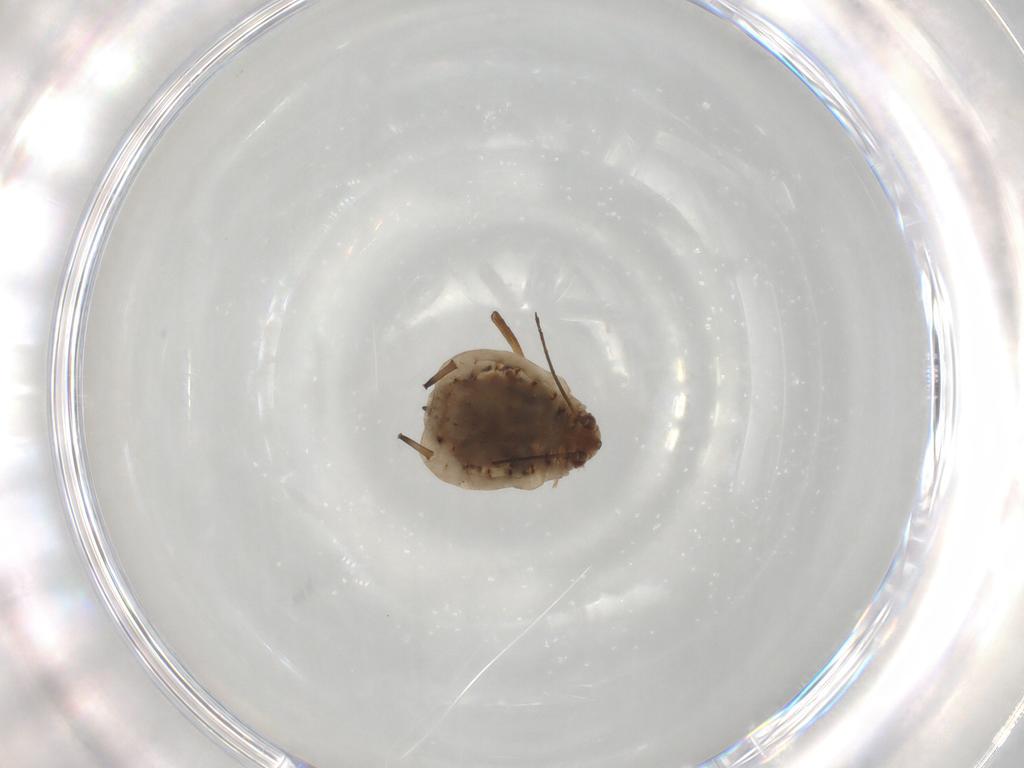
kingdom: Animalia
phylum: Arthropoda
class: Insecta
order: Hemiptera
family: Aphididae
